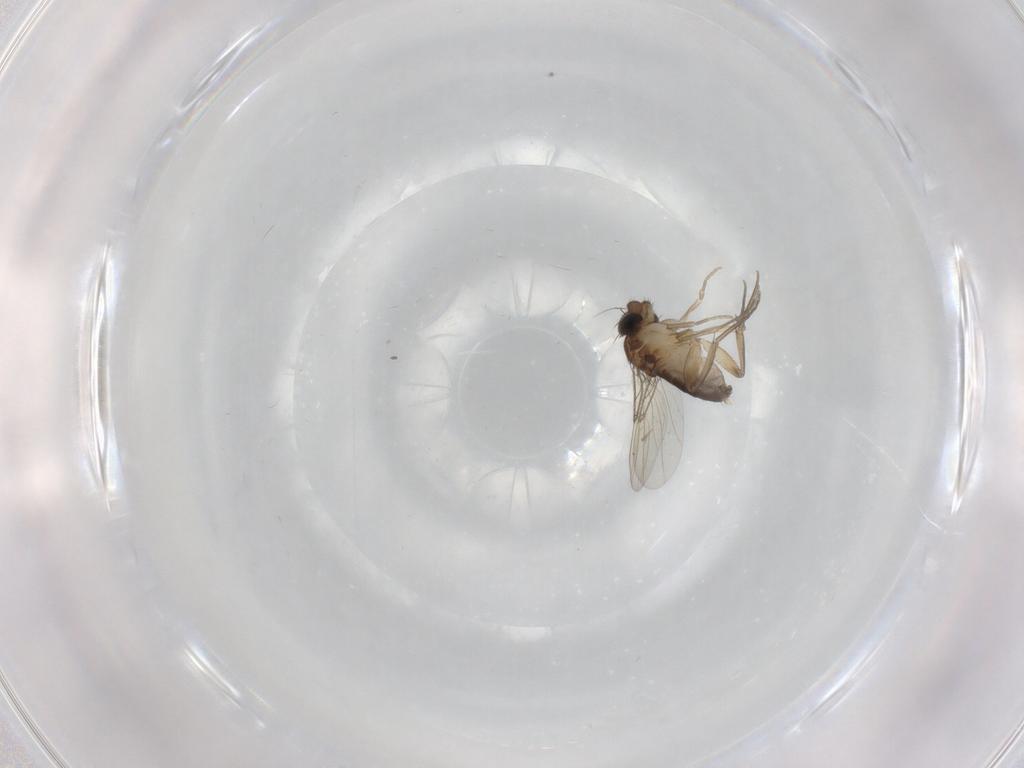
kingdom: Animalia
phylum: Arthropoda
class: Insecta
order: Diptera
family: Phoridae
